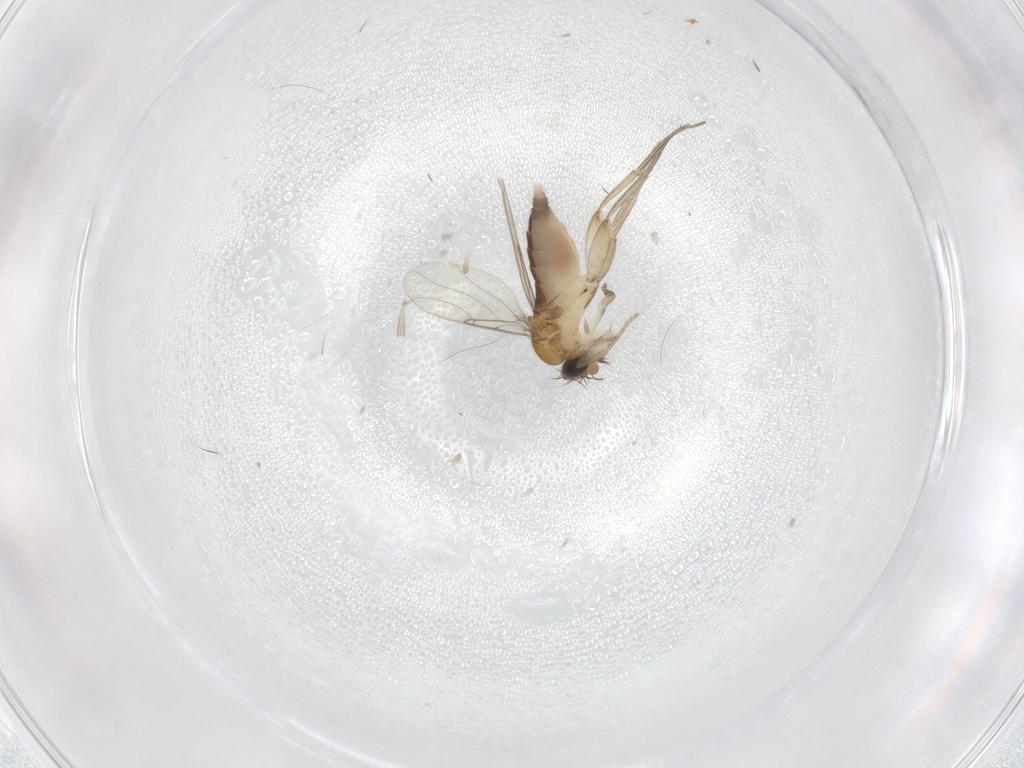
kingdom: Animalia
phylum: Arthropoda
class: Insecta
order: Diptera
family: Phoridae
